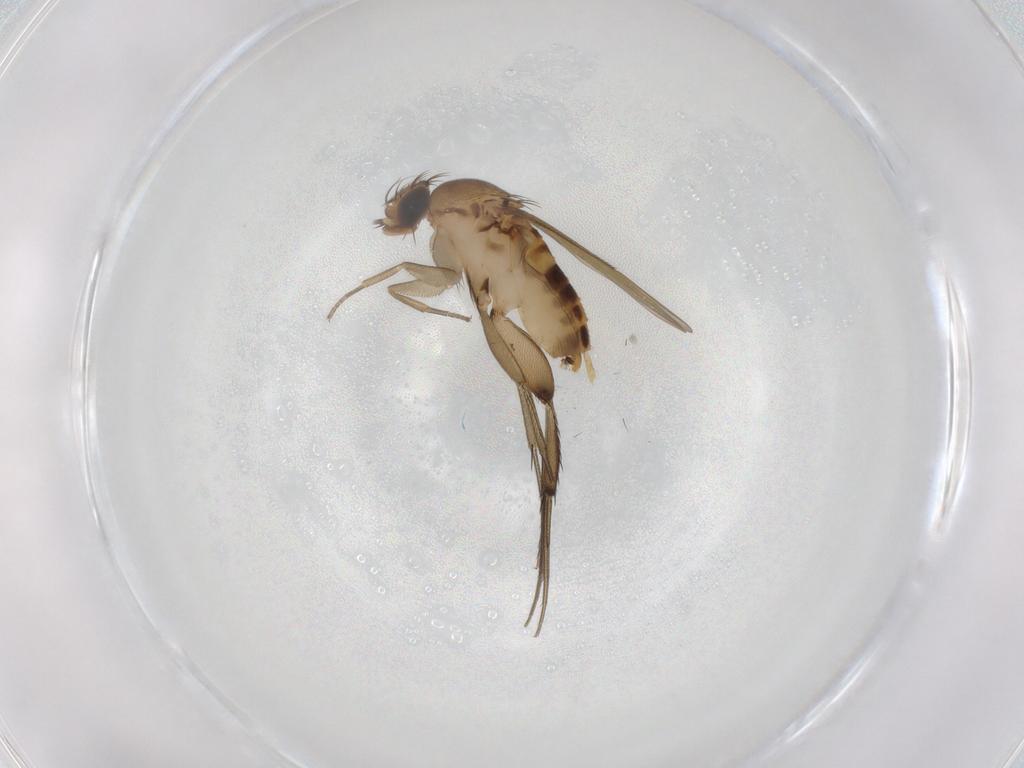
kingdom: Animalia
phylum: Arthropoda
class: Insecta
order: Diptera
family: Phoridae
